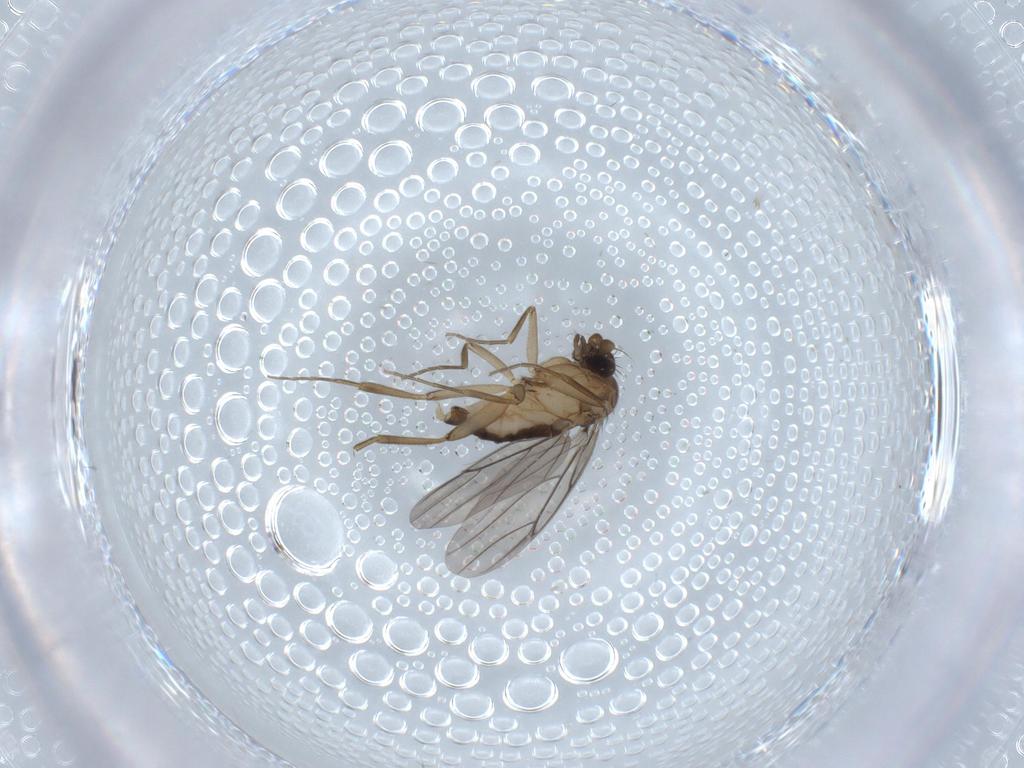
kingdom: Animalia
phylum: Arthropoda
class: Insecta
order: Diptera
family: Phoridae
